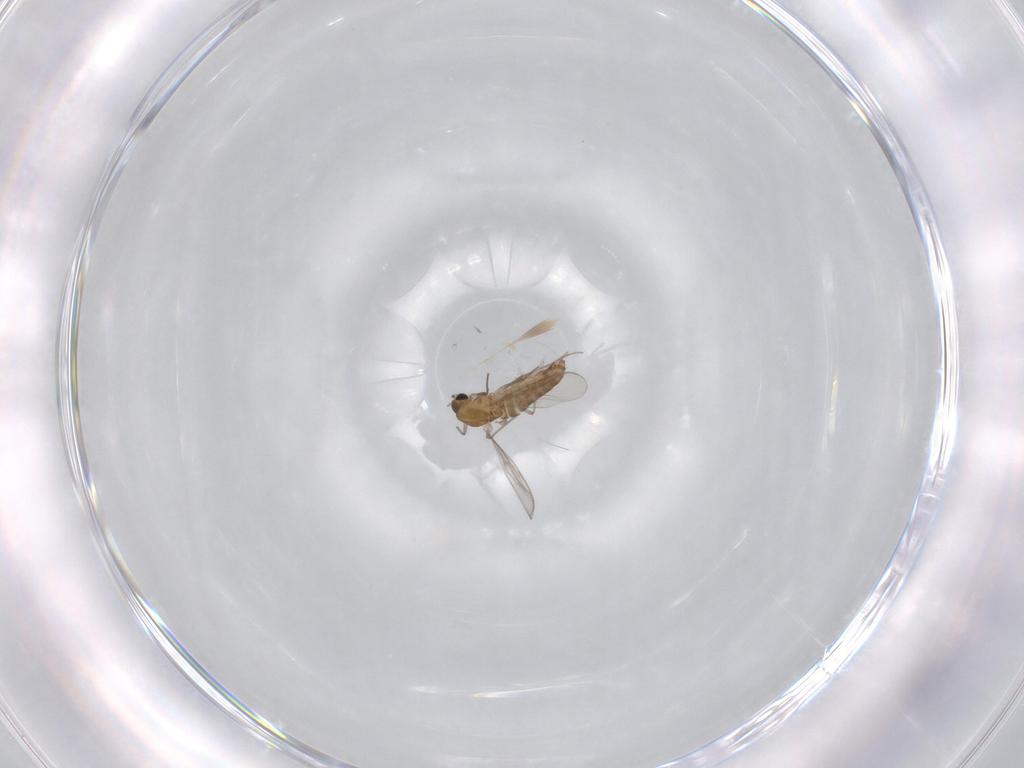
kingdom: Animalia
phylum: Arthropoda
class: Insecta
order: Diptera
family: Chironomidae
